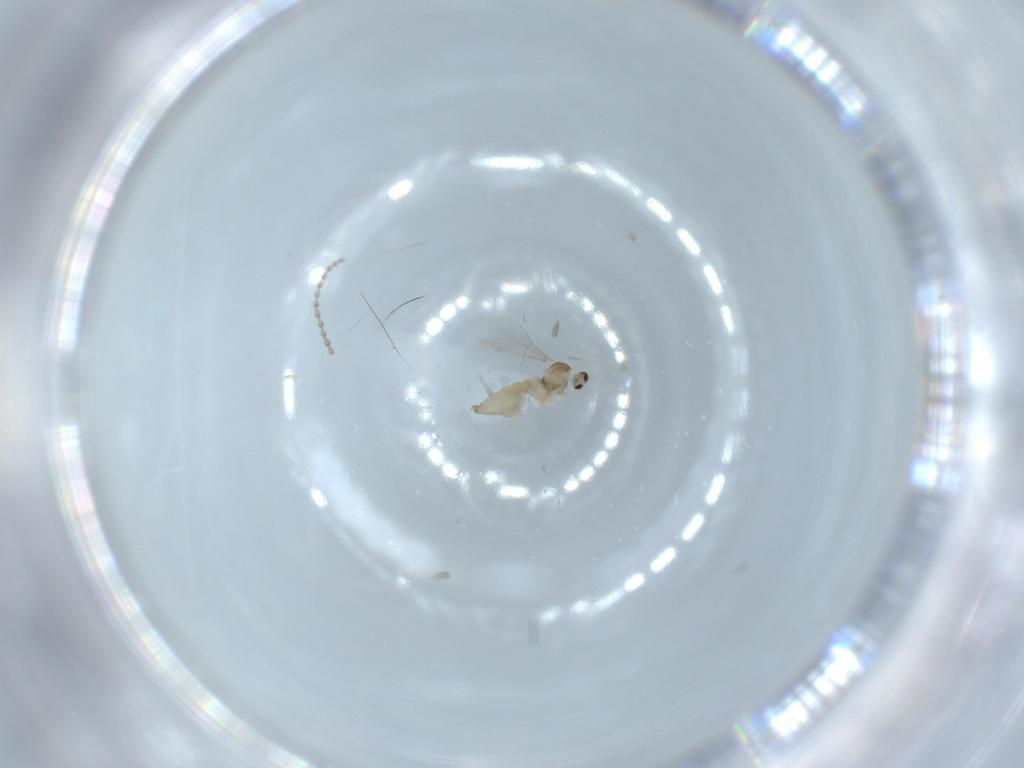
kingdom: Animalia
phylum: Arthropoda
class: Insecta
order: Diptera
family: Cecidomyiidae
